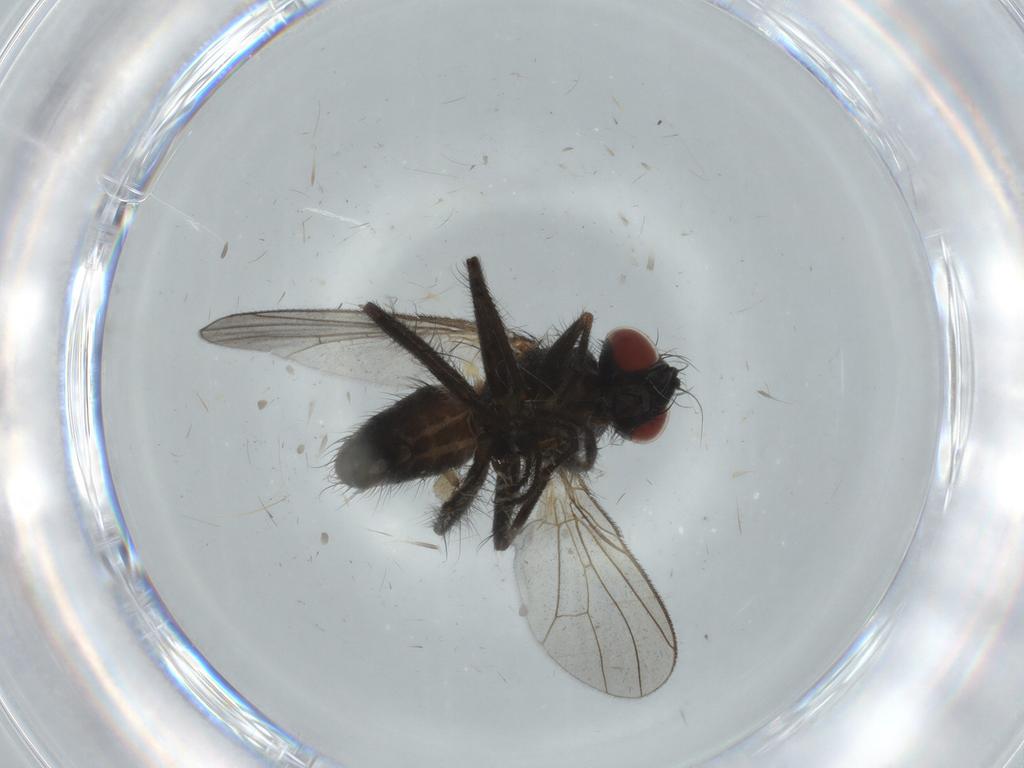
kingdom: Animalia
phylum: Arthropoda
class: Insecta
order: Diptera
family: Muscidae
